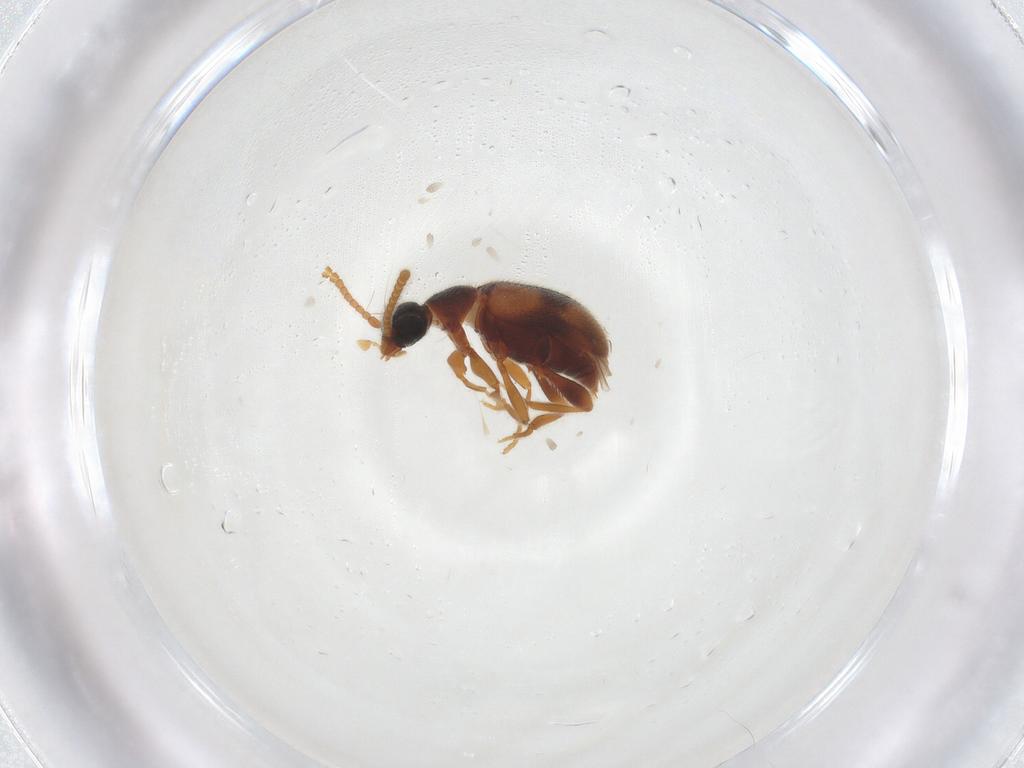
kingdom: Animalia
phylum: Arthropoda
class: Insecta
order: Coleoptera
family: Aderidae
